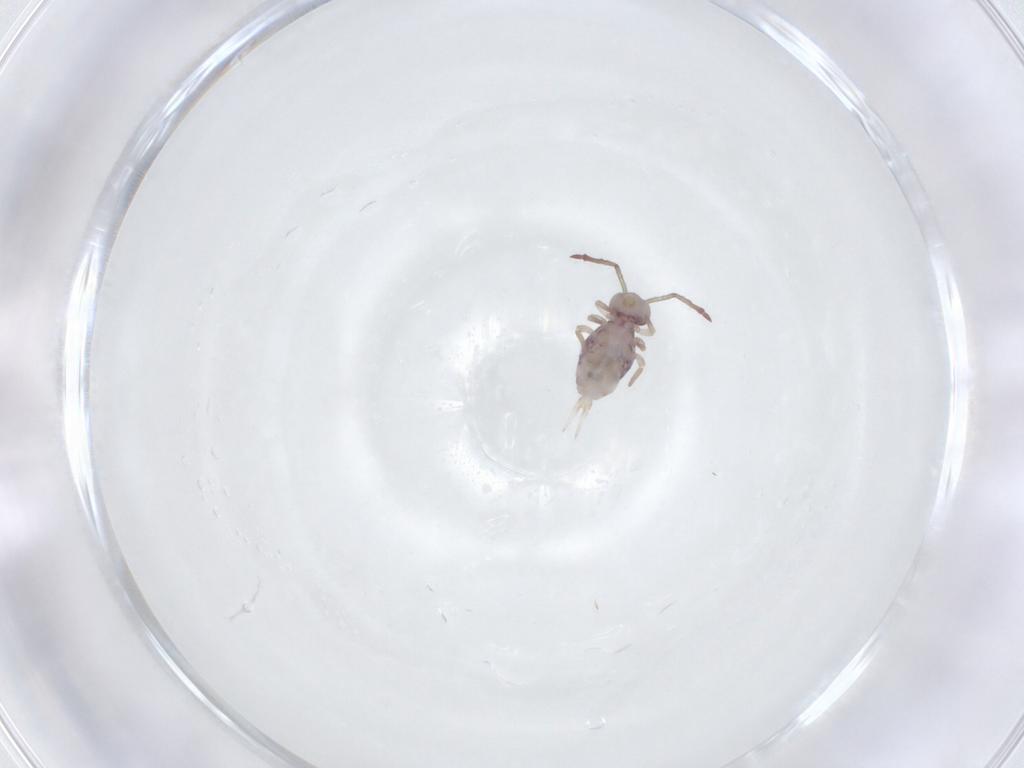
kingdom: Animalia
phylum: Arthropoda
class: Collembola
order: Symphypleona
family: Dicyrtomidae
